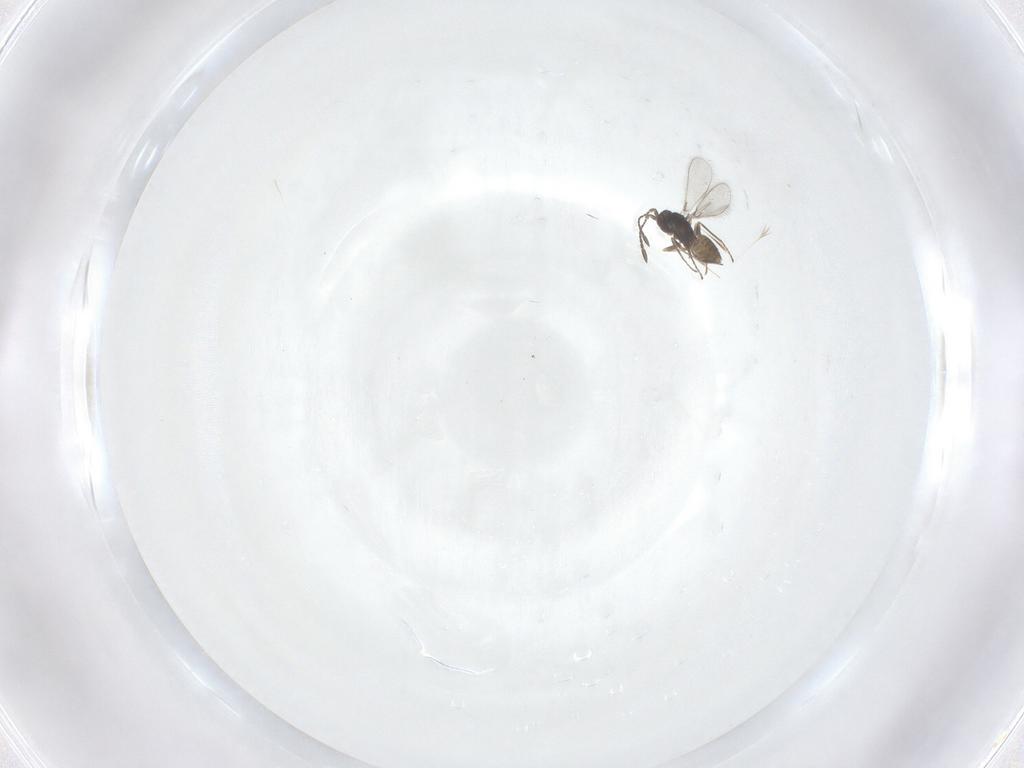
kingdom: Animalia
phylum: Arthropoda
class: Insecta
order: Hymenoptera
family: Mymaridae
